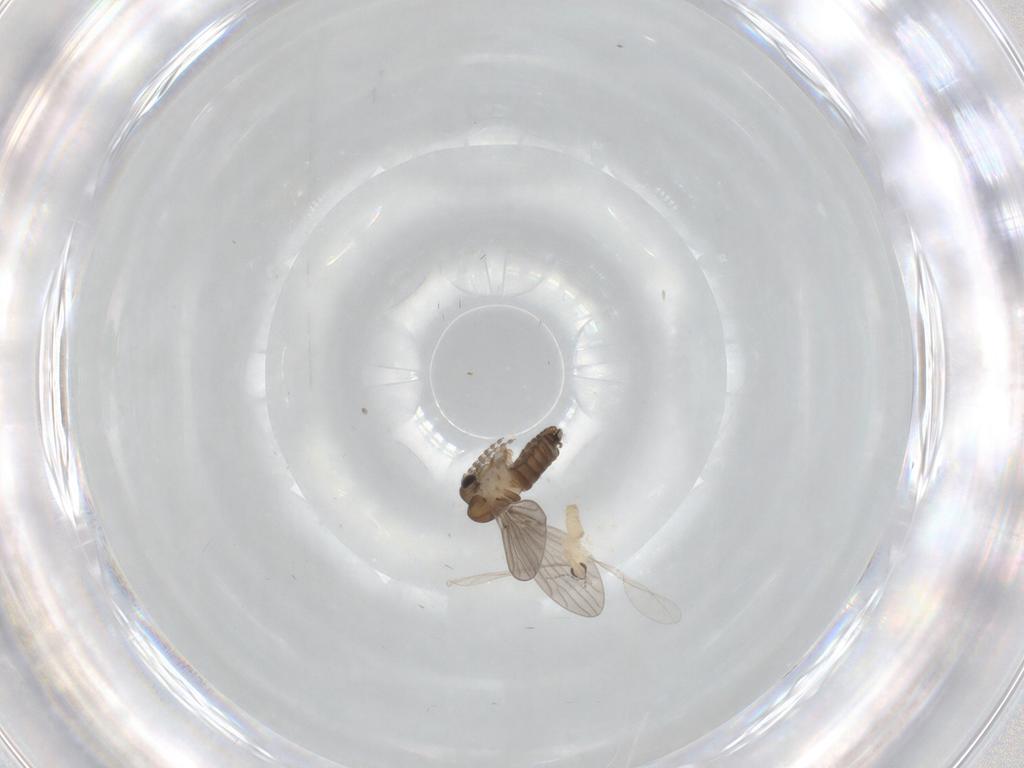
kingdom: Animalia
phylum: Arthropoda
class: Insecta
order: Diptera
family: Cecidomyiidae
